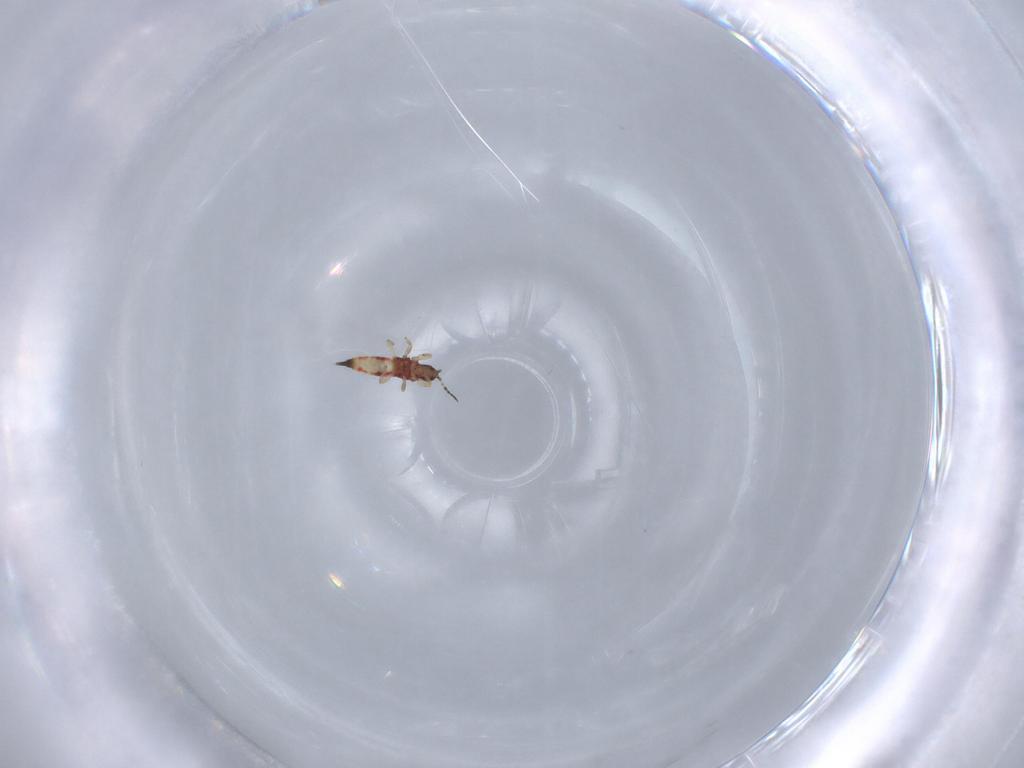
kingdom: Animalia
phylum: Arthropoda
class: Insecta
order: Thysanoptera
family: Phlaeothripidae
